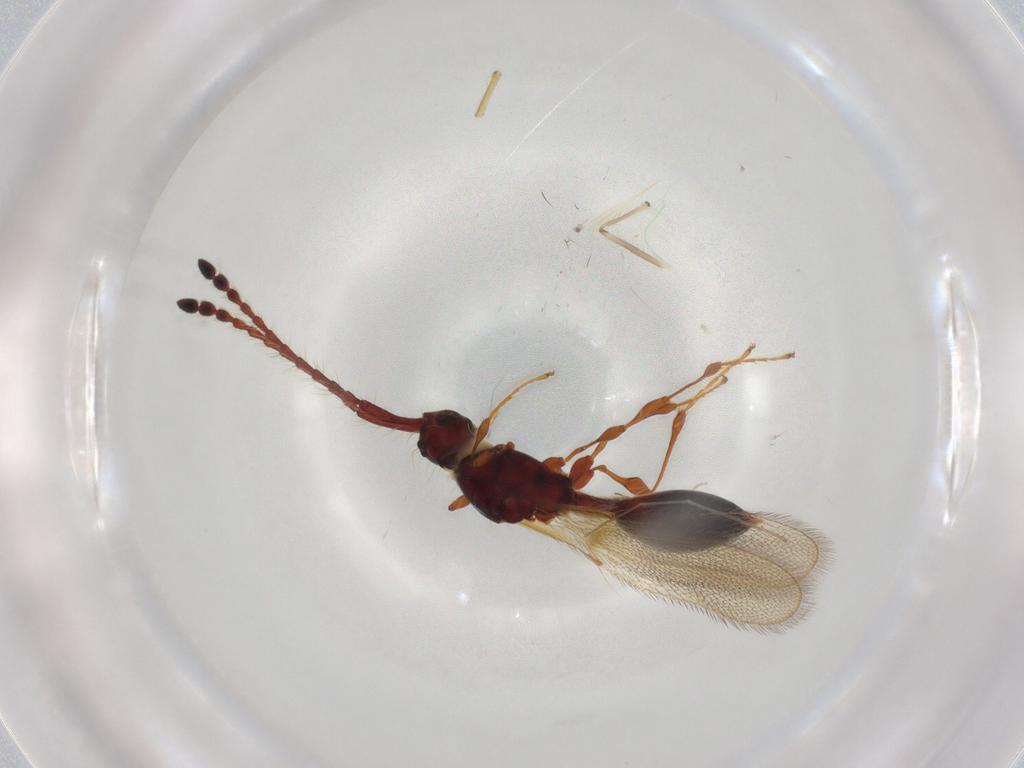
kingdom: Animalia
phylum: Arthropoda
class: Insecta
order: Hymenoptera
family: Diapriidae
